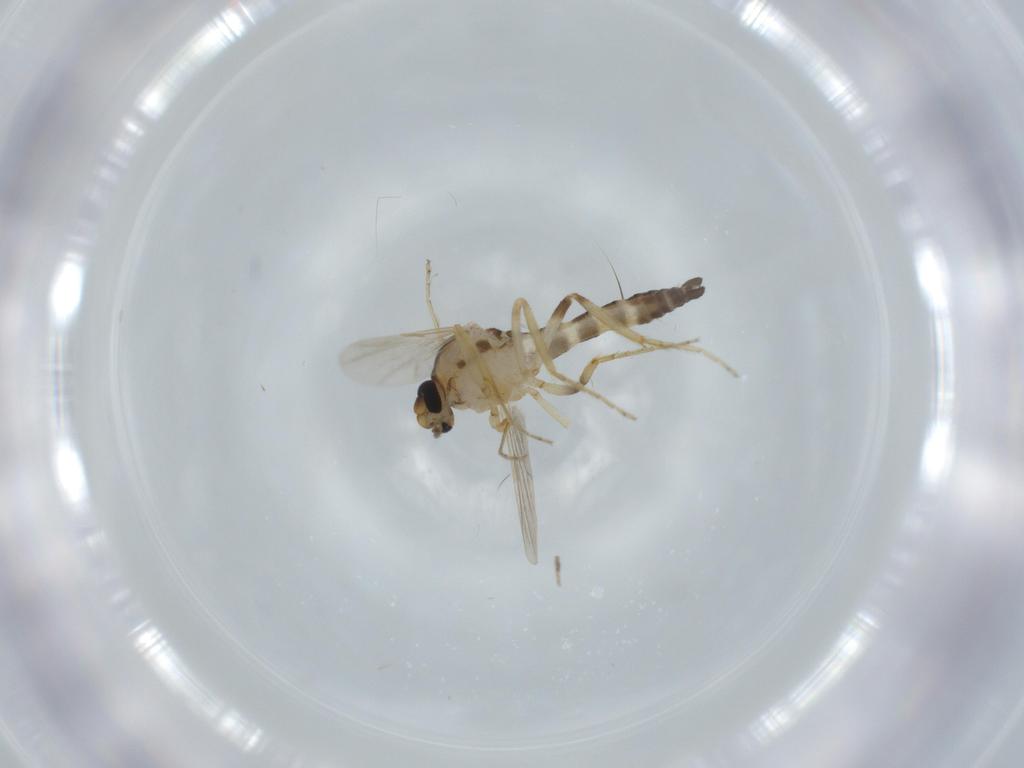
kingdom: Animalia
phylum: Arthropoda
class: Insecta
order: Diptera
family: Ceratopogonidae
